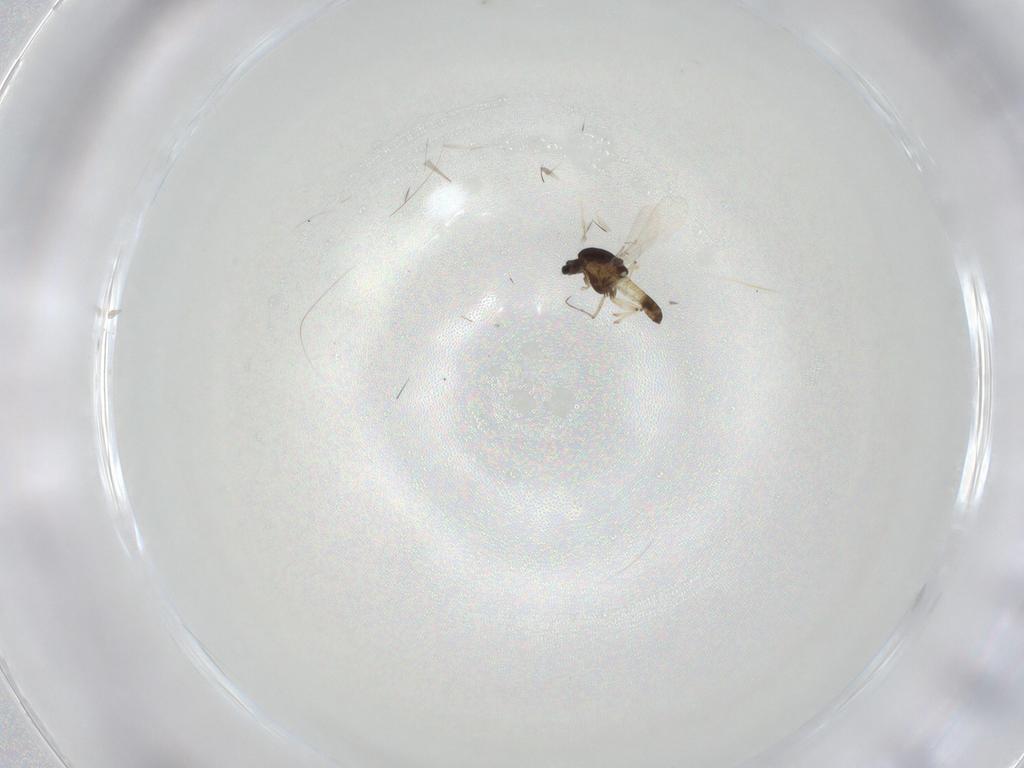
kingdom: Animalia
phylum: Arthropoda
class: Insecta
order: Diptera
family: Chironomidae
